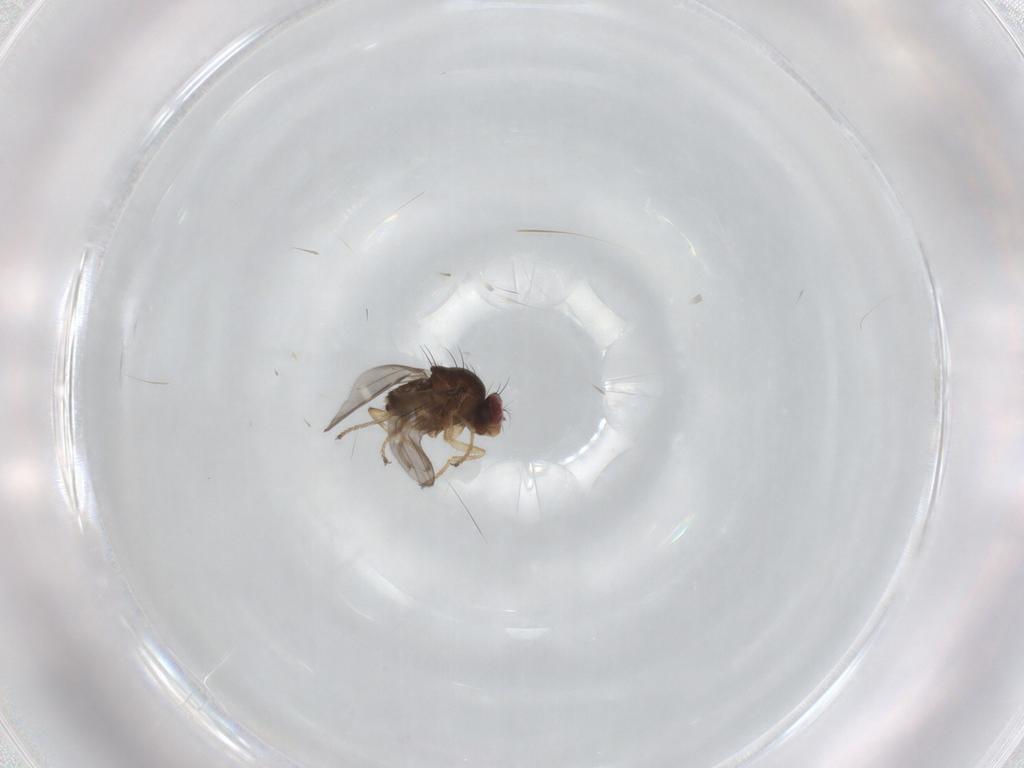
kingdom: Animalia
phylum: Arthropoda
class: Insecta
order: Diptera
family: Ephydridae
